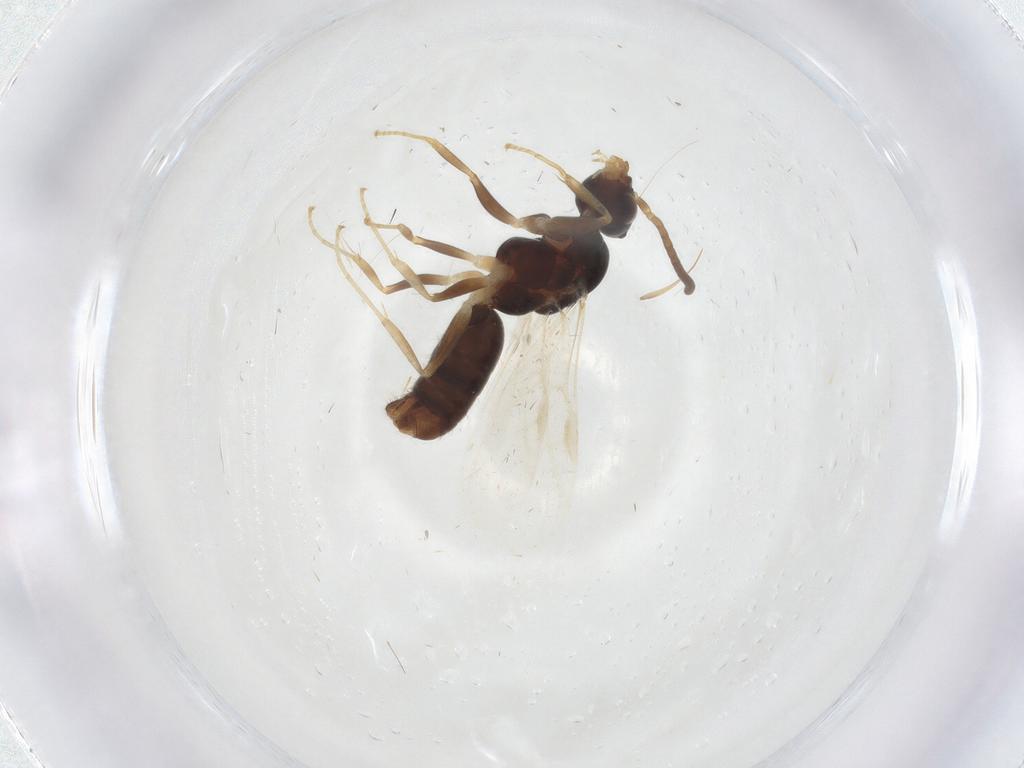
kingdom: Animalia
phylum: Arthropoda
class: Insecta
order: Hymenoptera
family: Formicidae
